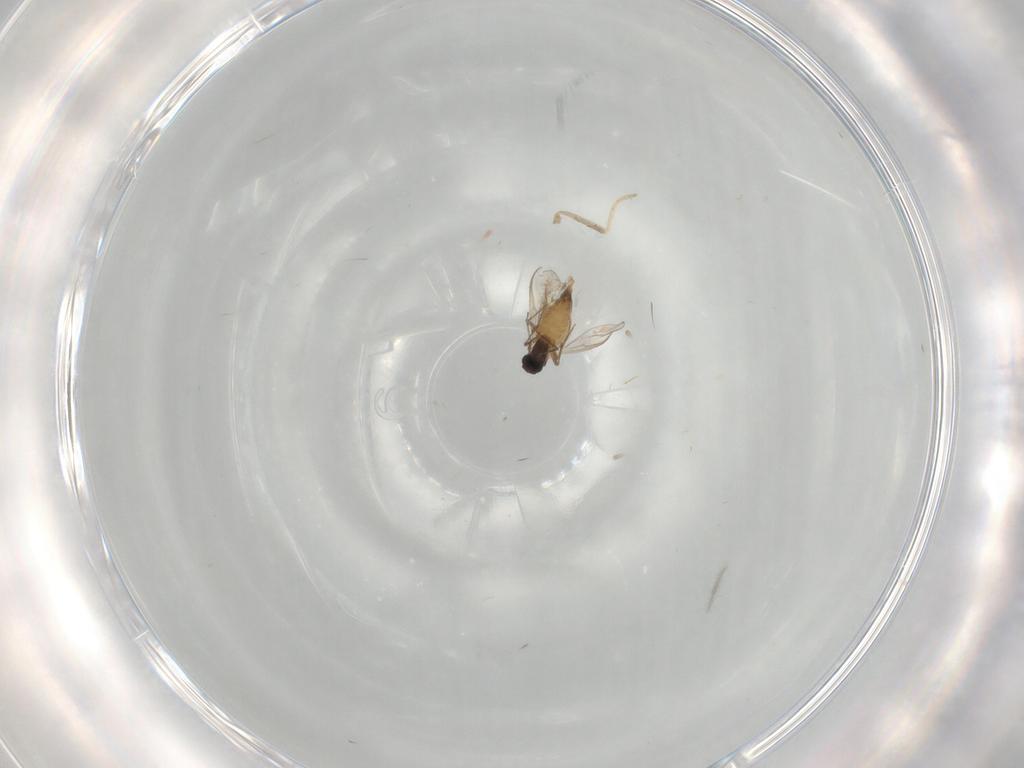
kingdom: Animalia
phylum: Arthropoda
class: Insecta
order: Diptera
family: Chironomidae
